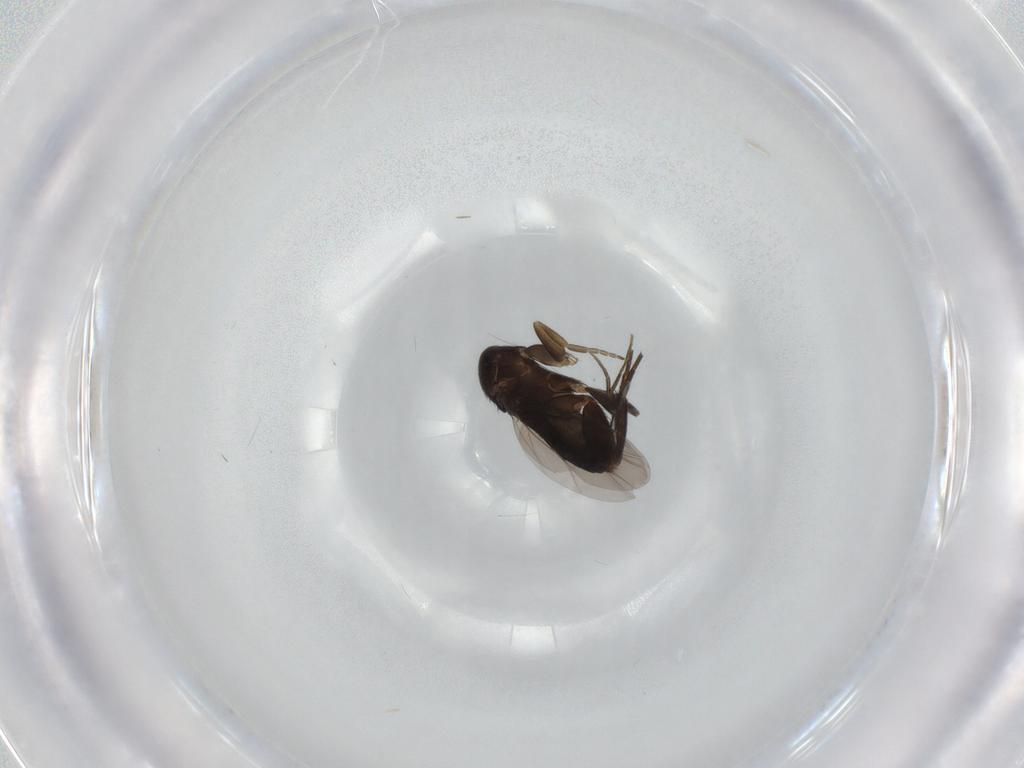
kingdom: Animalia
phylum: Arthropoda
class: Insecta
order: Diptera
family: Sciaridae
